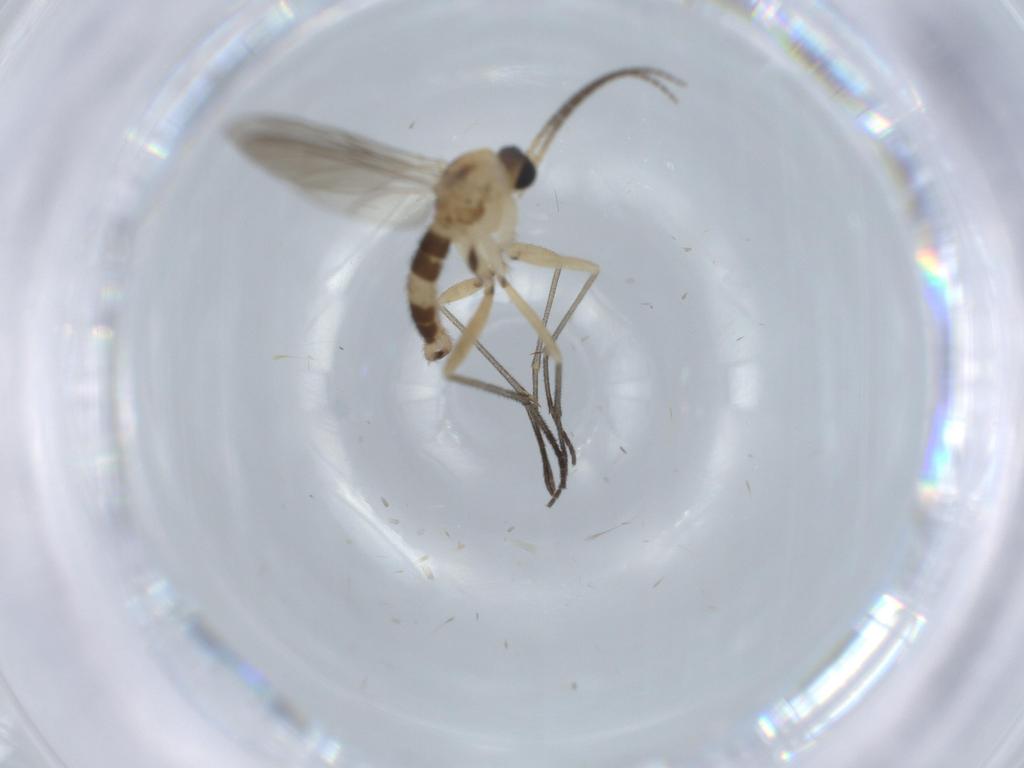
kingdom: Animalia
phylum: Arthropoda
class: Insecta
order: Diptera
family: Sciaridae
